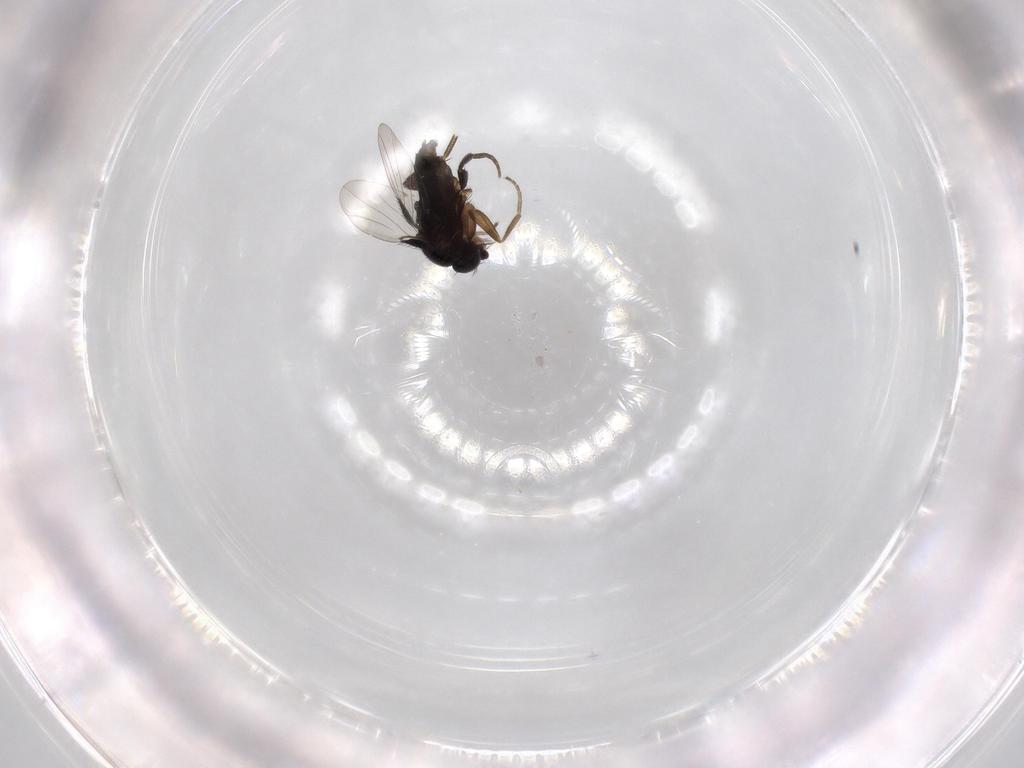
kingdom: Animalia
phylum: Arthropoda
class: Insecta
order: Diptera
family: Phoridae
